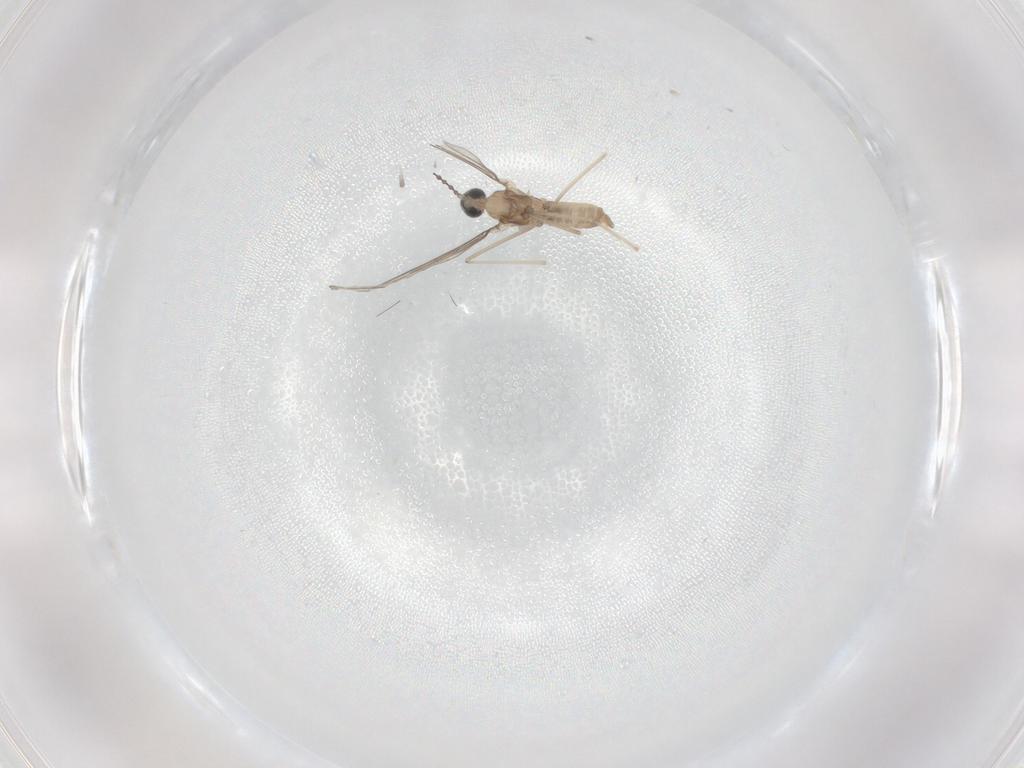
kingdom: Animalia
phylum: Arthropoda
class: Insecta
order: Diptera
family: Cecidomyiidae
